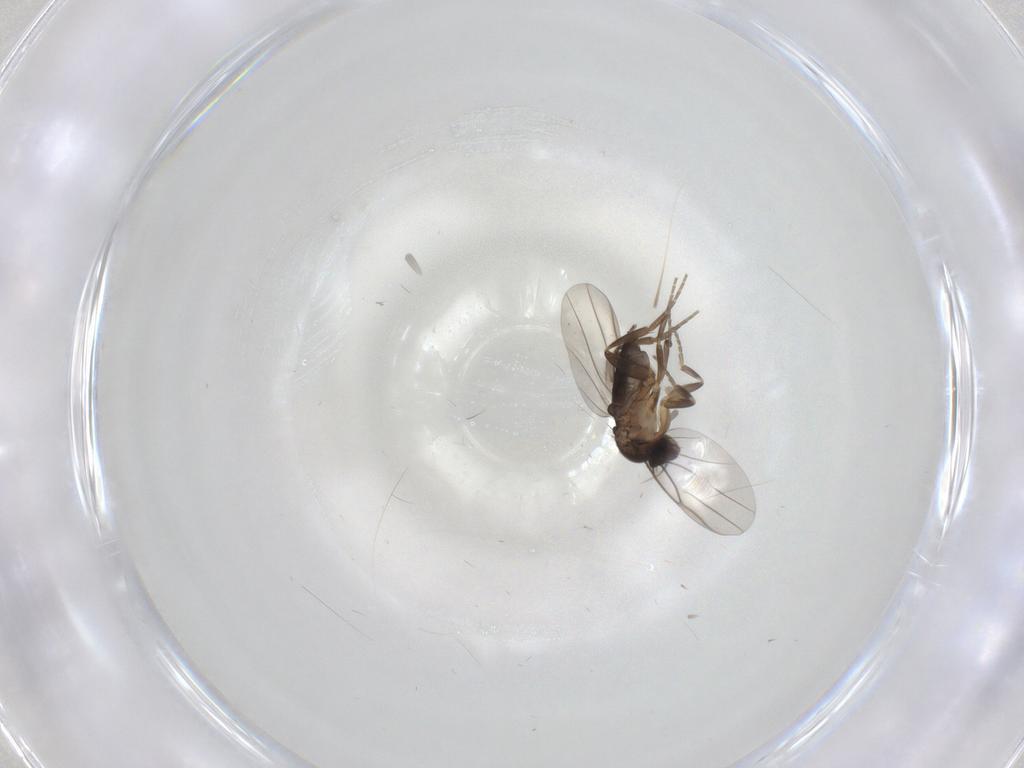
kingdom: Animalia
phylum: Arthropoda
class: Insecta
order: Diptera
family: Phoridae
